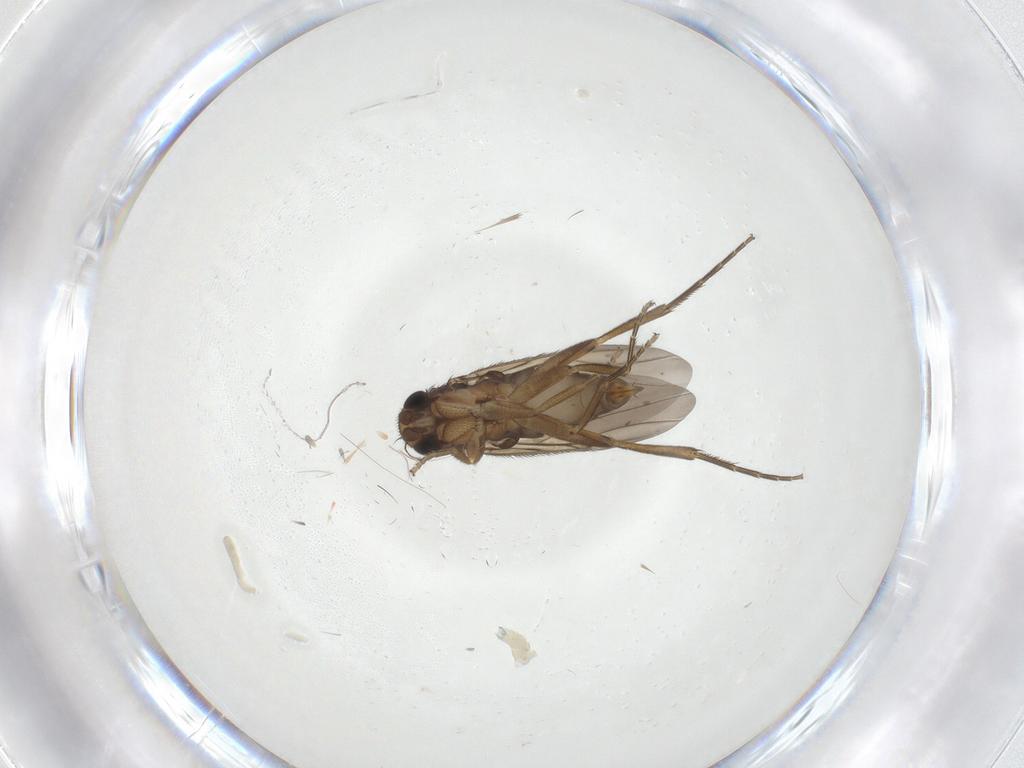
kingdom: Animalia
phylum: Arthropoda
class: Insecta
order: Diptera
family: Phoridae
